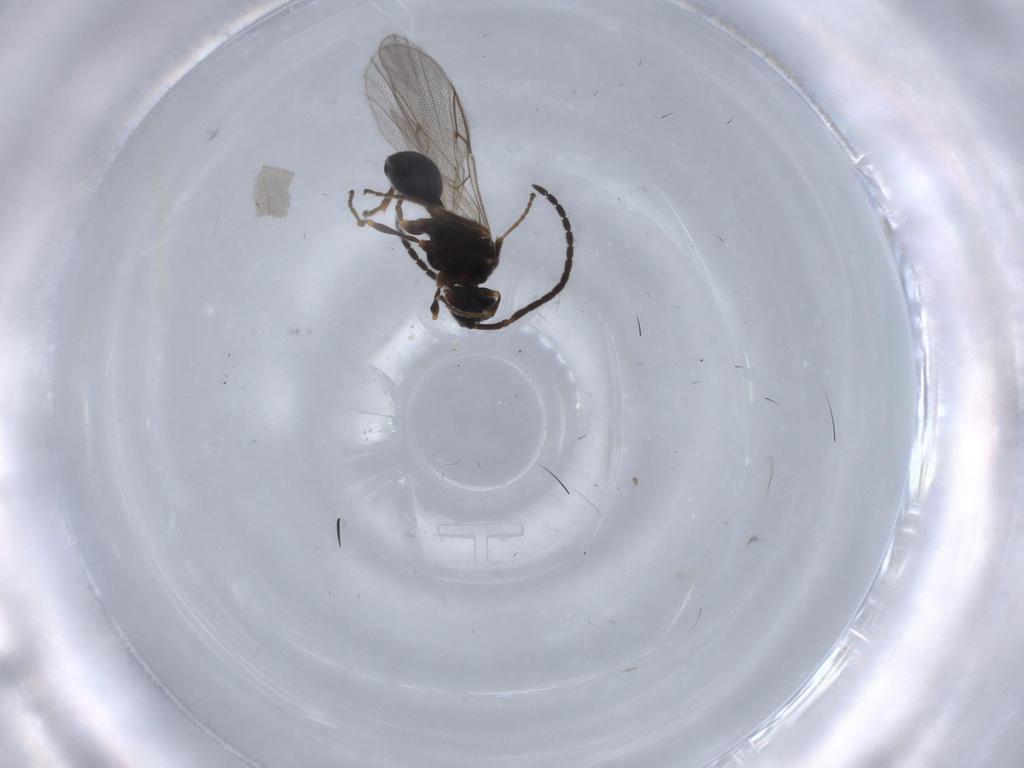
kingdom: Animalia
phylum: Arthropoda
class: Insecta
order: Hymenoptera
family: Diapriidae
